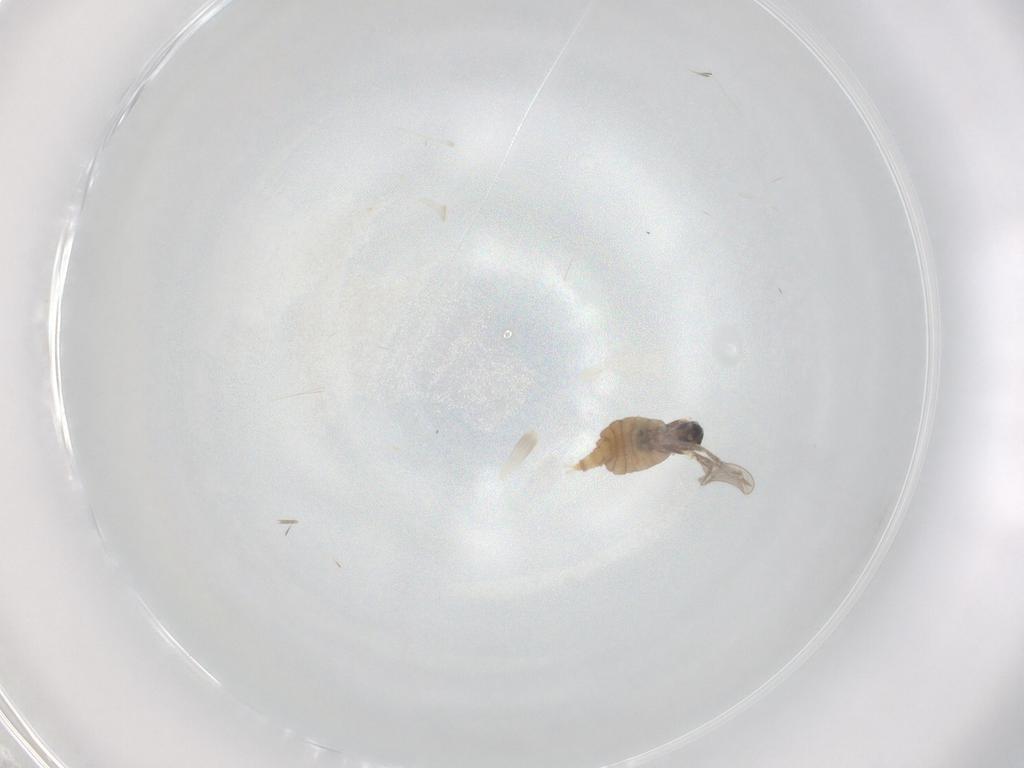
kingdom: Animalia
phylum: Arthropoda
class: Insecta
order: Diptera
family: Cecidomyiidae
